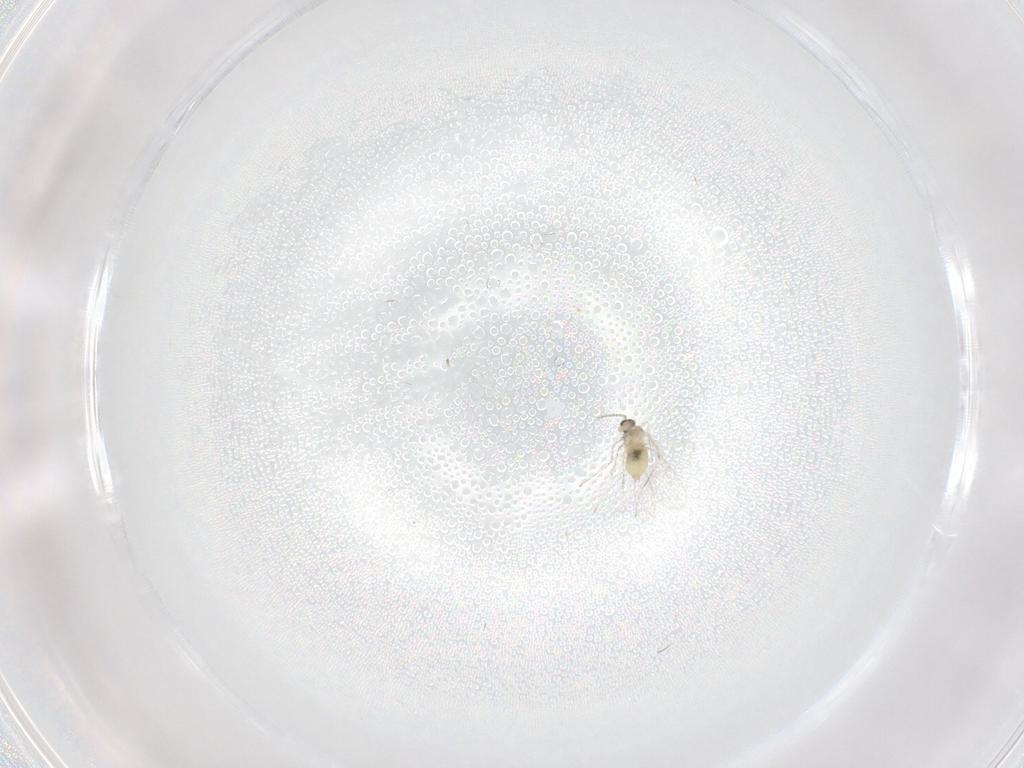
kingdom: Animalia
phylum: Arthropoda
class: Insecta
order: Diptera
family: Cecidomyiidae
